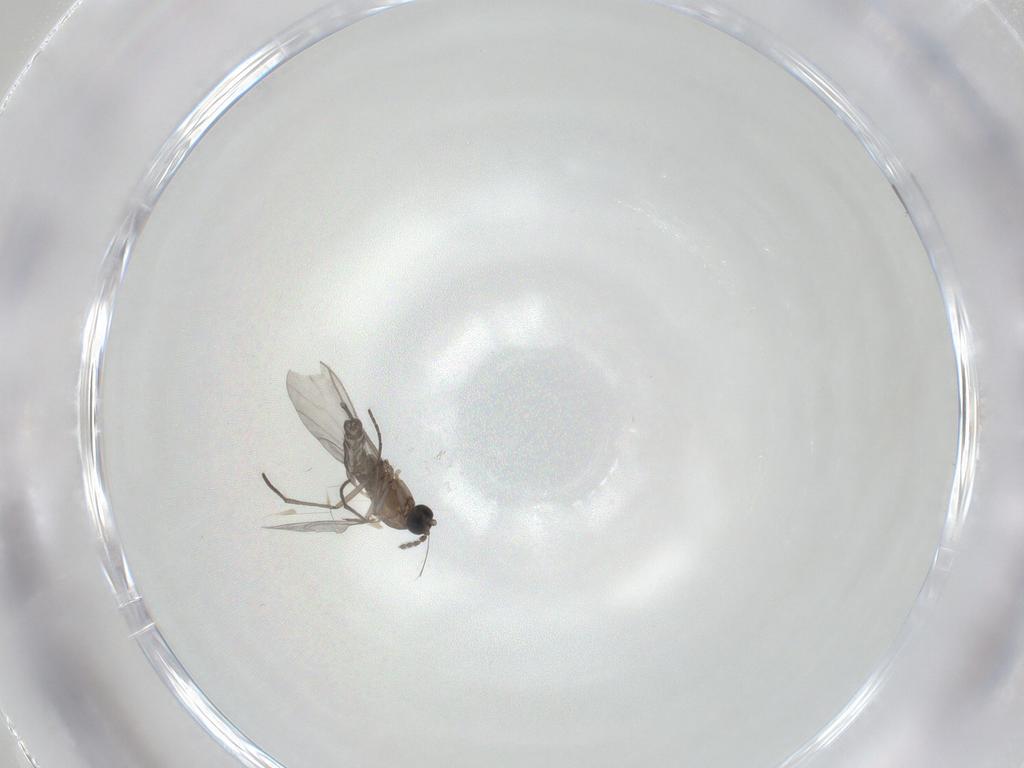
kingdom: Animalia
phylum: Arthropoda
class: Insecta
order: Diptera
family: Sciaridae
